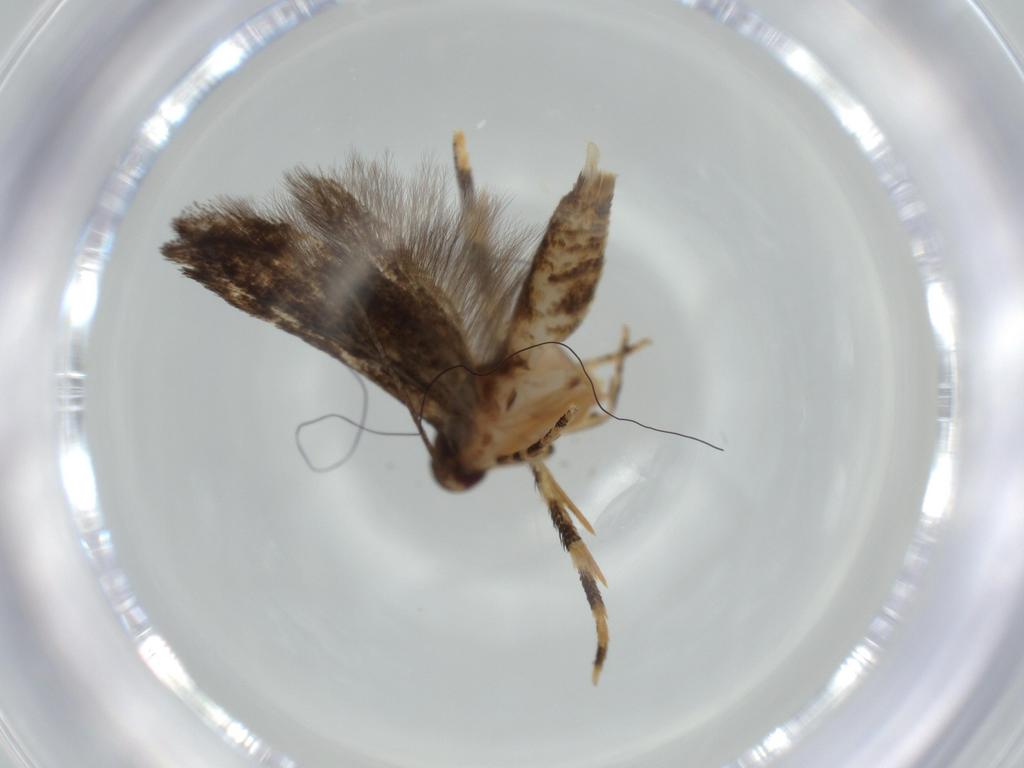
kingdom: Animalia
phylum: Arthropoda
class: Insecta
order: Lepidoptera
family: Momphidae
